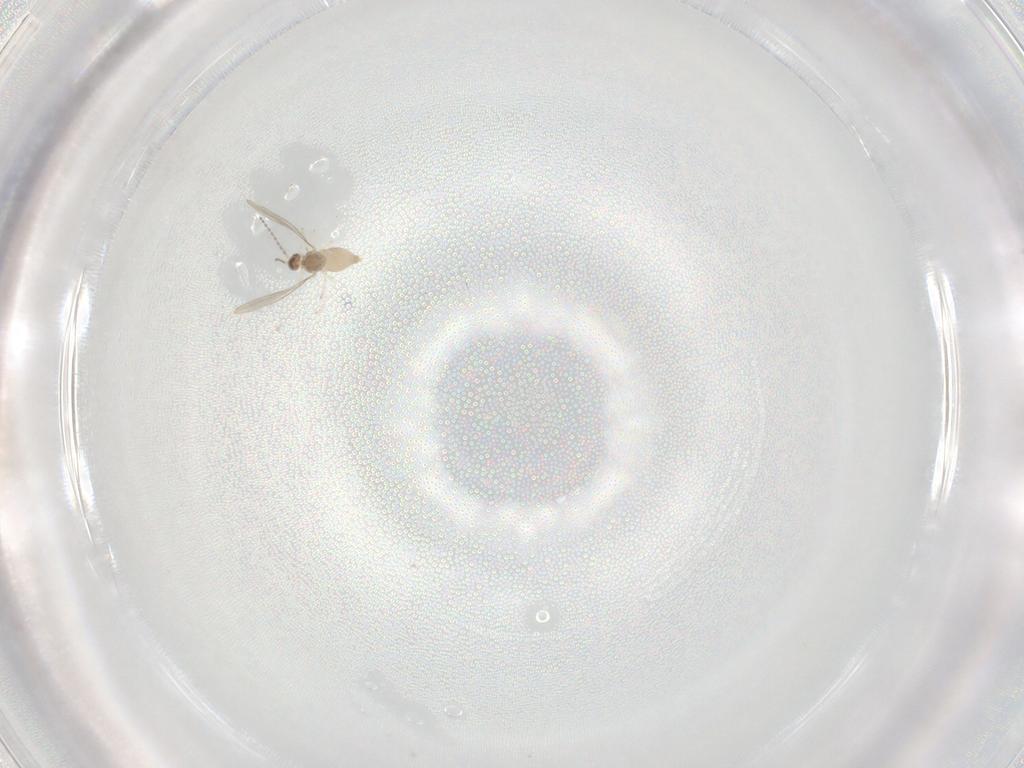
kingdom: Animalia
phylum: Arthropoda
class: Insecta
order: Diptera
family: Cecidomyiidae
